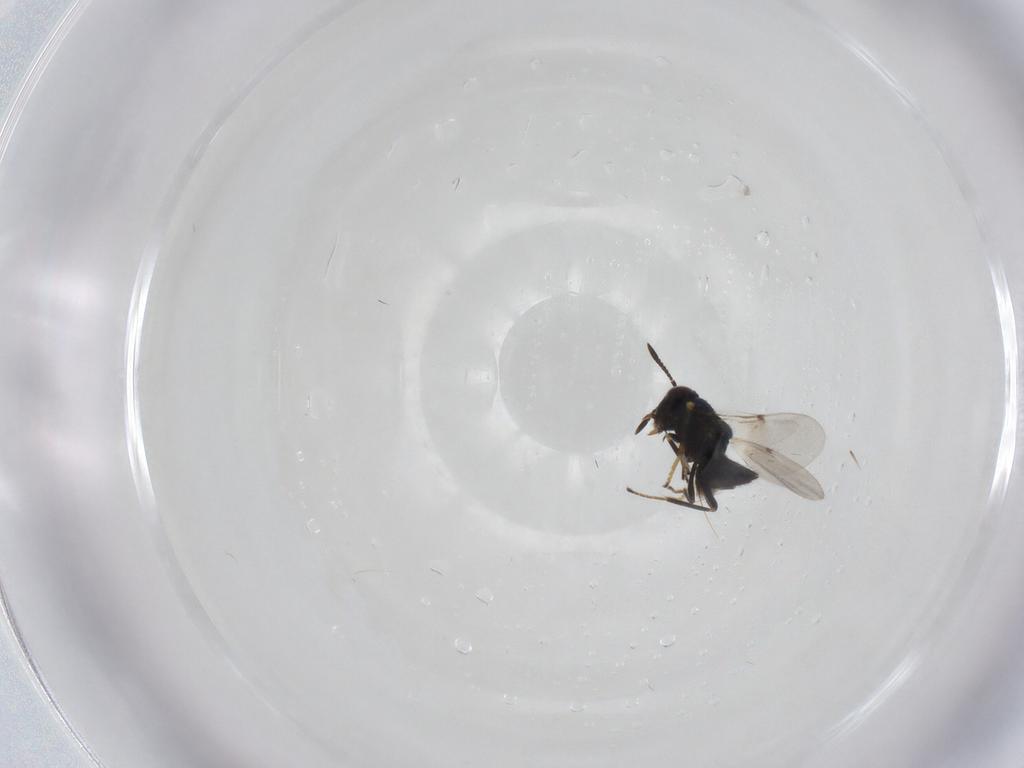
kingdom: Animalia
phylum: Arthropoda
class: Insecta
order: Hymenoptera
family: Encyrtidae
